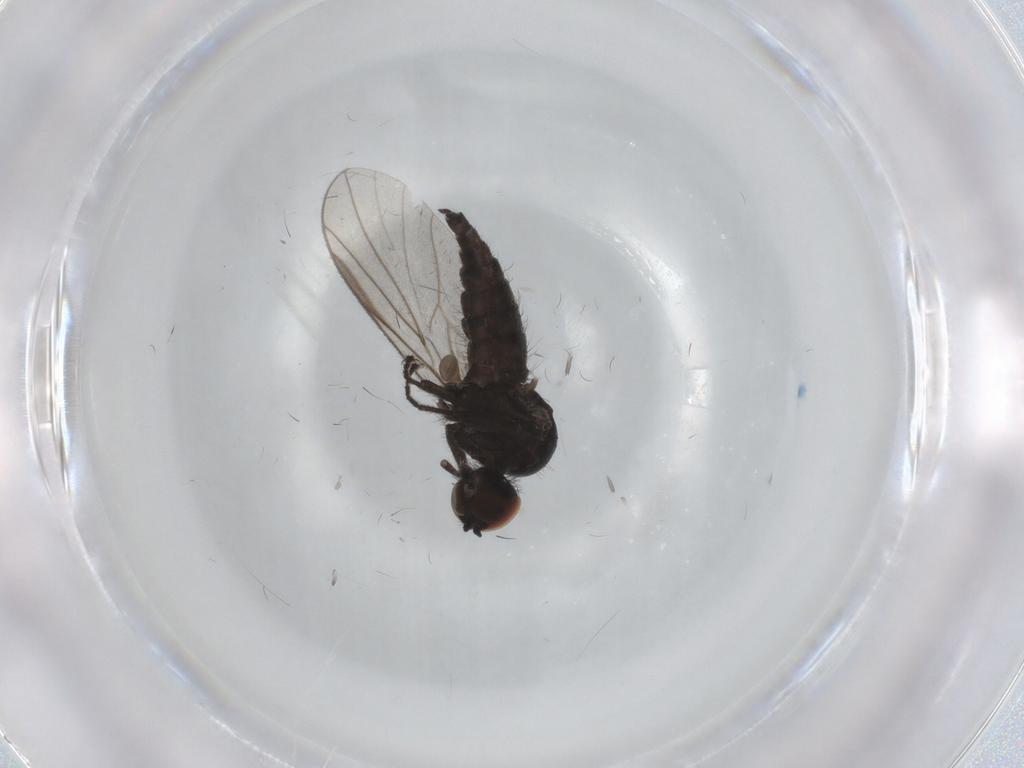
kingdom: Animalia
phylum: Arthropoda
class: Insecta
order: Diptera
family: Hybotidae
